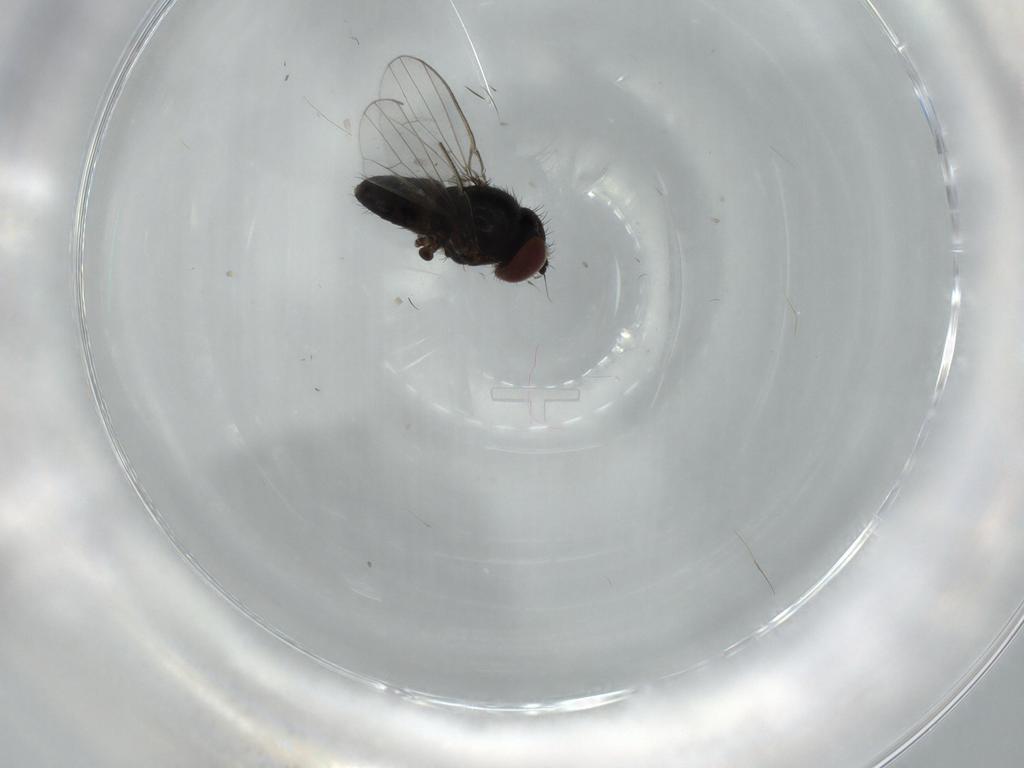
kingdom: Animalia
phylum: Arthropoda
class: Insecta
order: Diptera
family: Milichiidae
